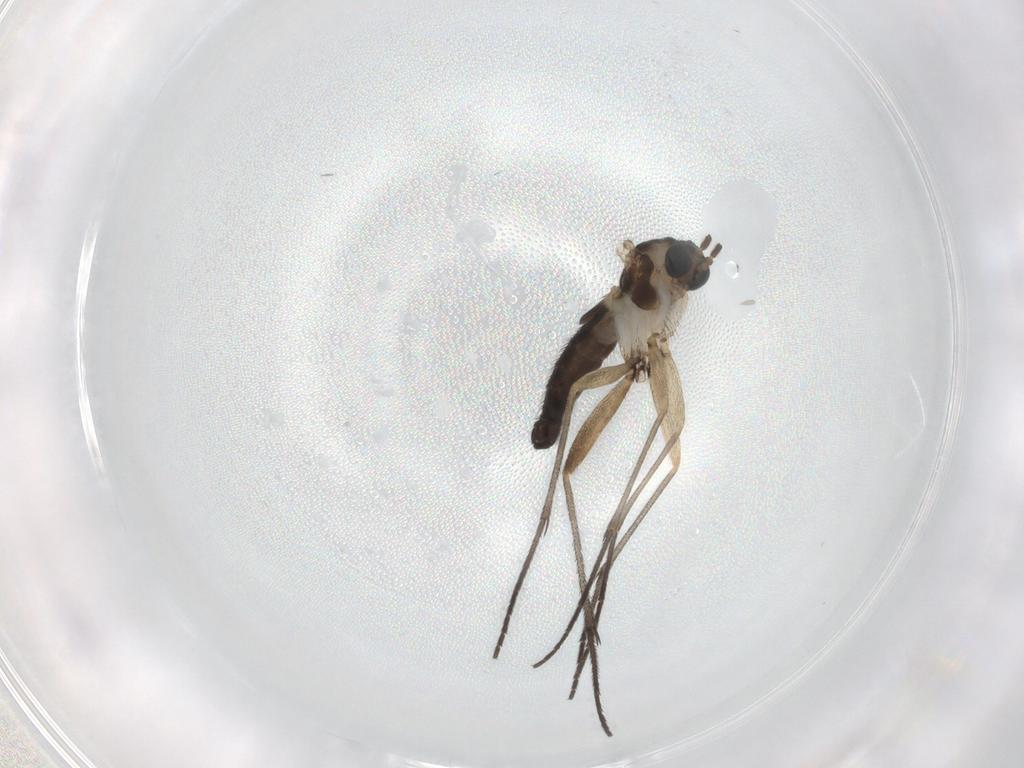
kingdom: Animalia
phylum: Arthropoda
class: Insecta
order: Diptera
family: Sciaridae
